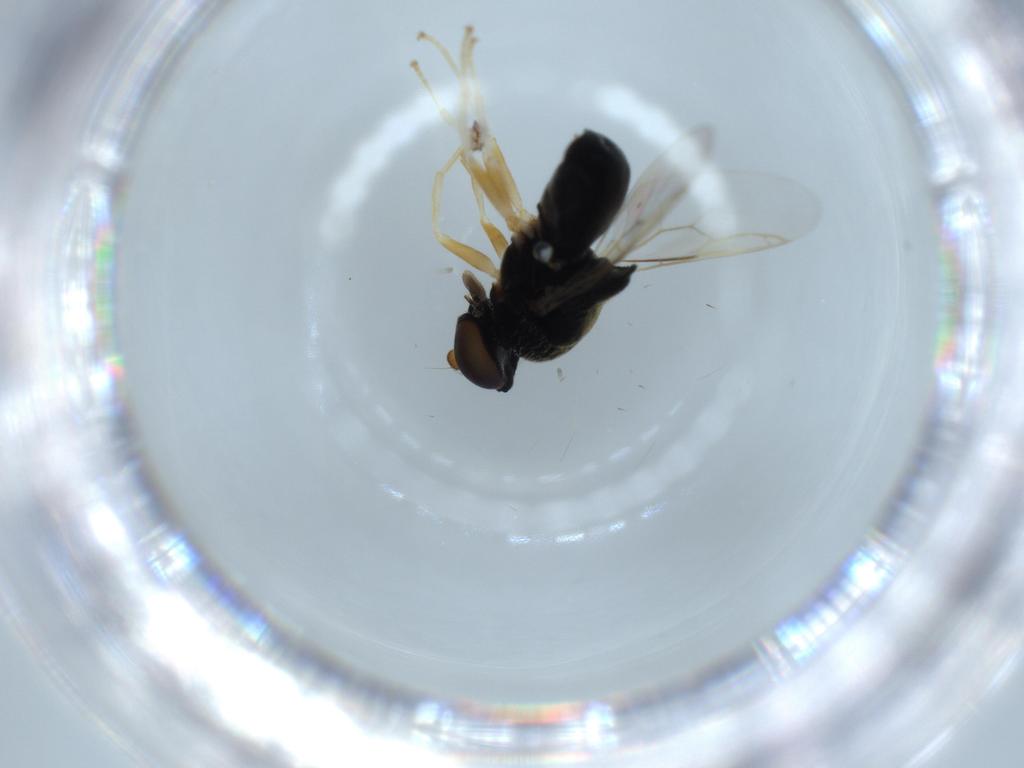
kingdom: Animalia
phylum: Arthropoda
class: Insecta
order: Diptera
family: Stratiomyidae
